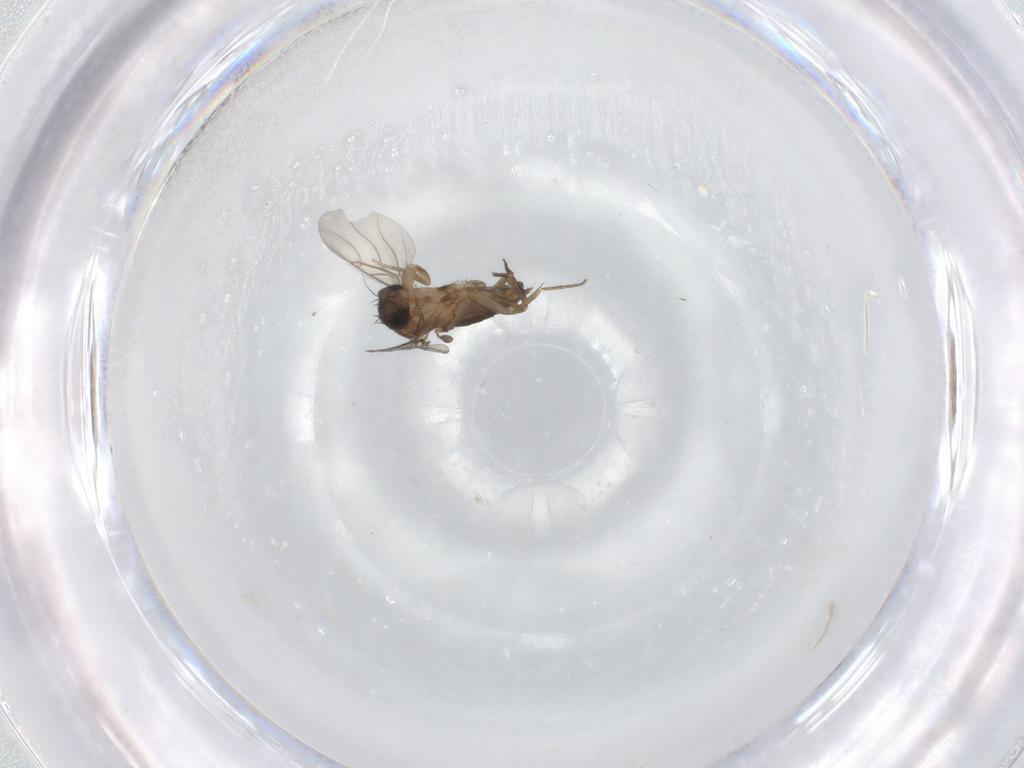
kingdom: Animalia
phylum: Arthropoda
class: Insecta
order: Diptera
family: Phoridae
